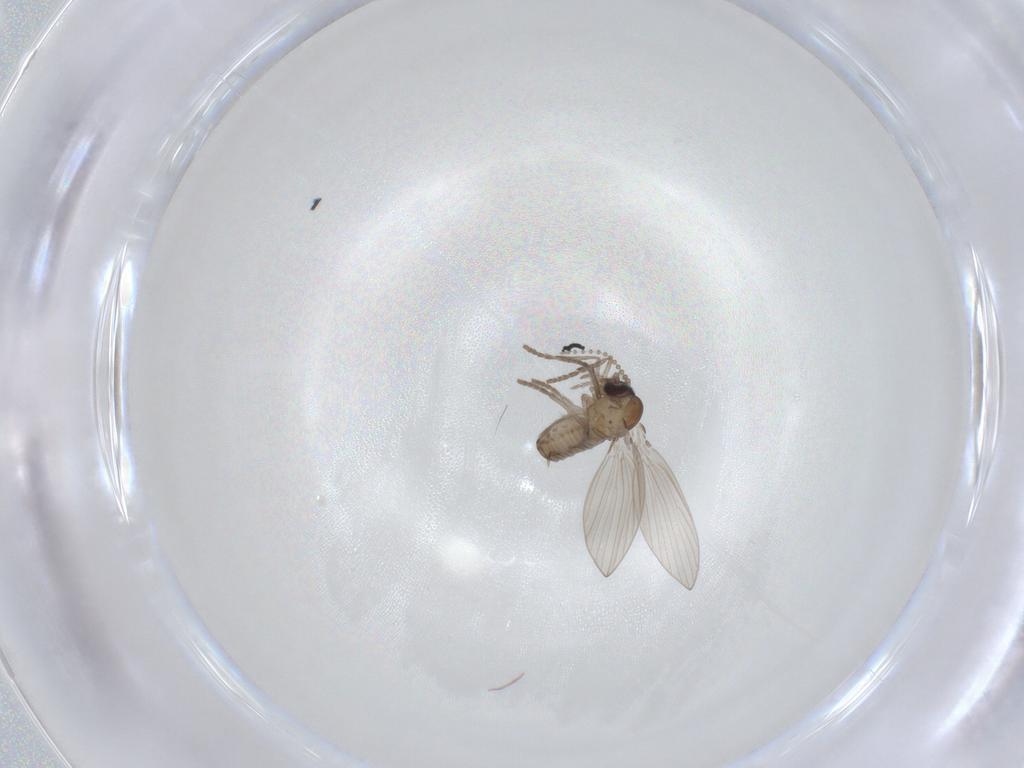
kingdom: Animalia
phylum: Arthropoda
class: Insecta
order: Diptera
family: Psychodidae
